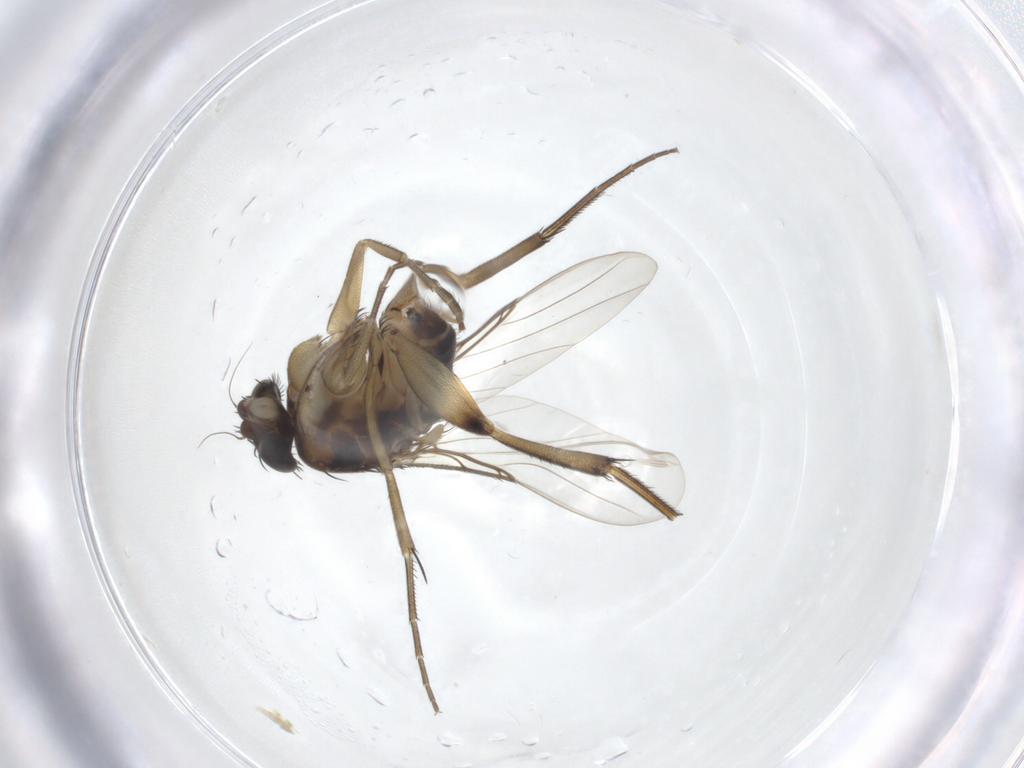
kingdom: Animalia
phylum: Arthropoda
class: Insecta
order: Diptera
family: Phoridae
